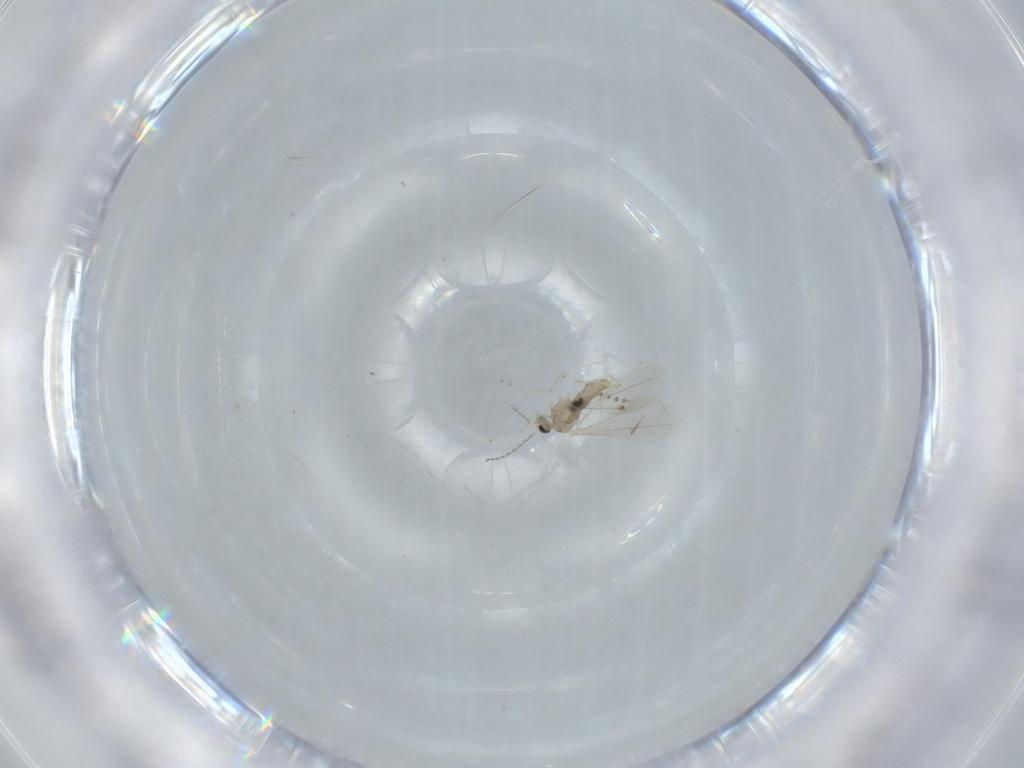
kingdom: Animalia
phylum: Arthropoda
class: Insecta
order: Diptera
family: Psychodidae
